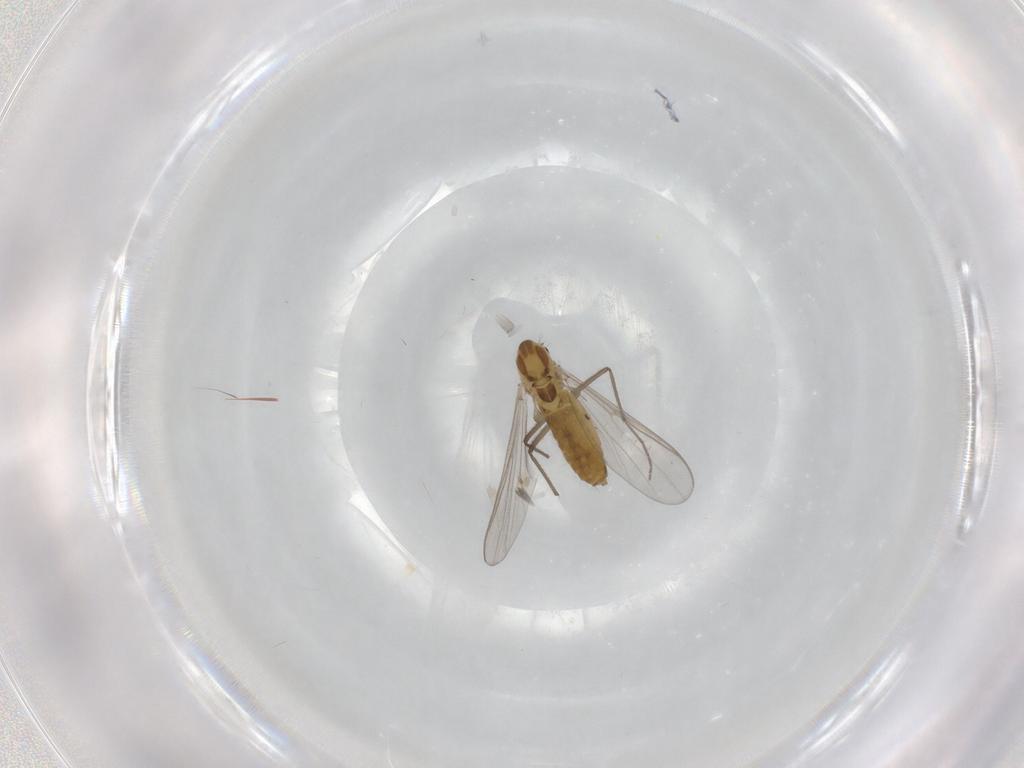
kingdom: Animalia
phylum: Arthropoda
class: Insecta
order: Diptera
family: Chironomidae
